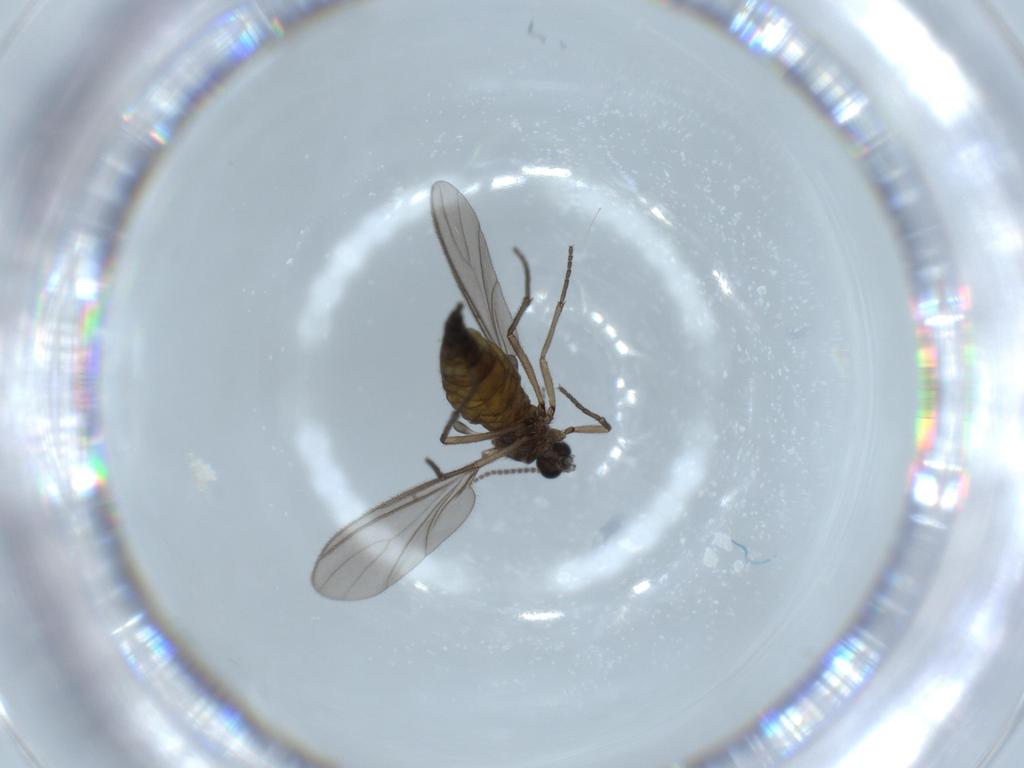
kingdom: Animalia
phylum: Arthropoda
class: Insecta
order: Diptera
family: Sciaridae
